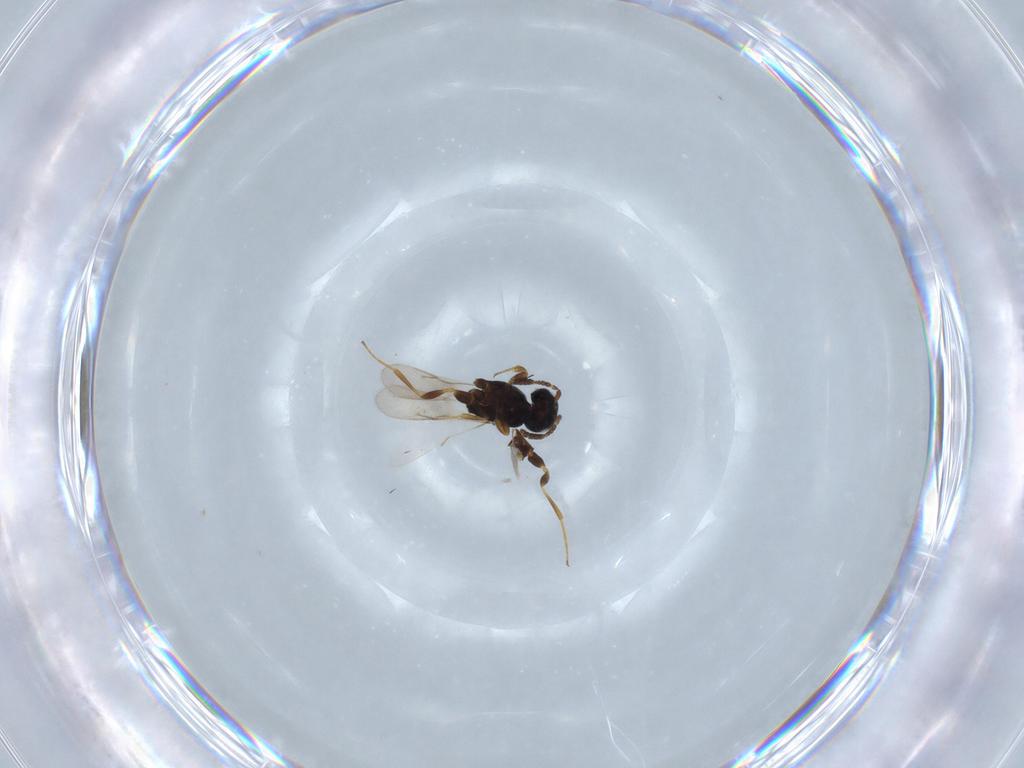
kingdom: Animalia
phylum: Arthropoda
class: Insecta
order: Hymenoptera
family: Scelionidae
